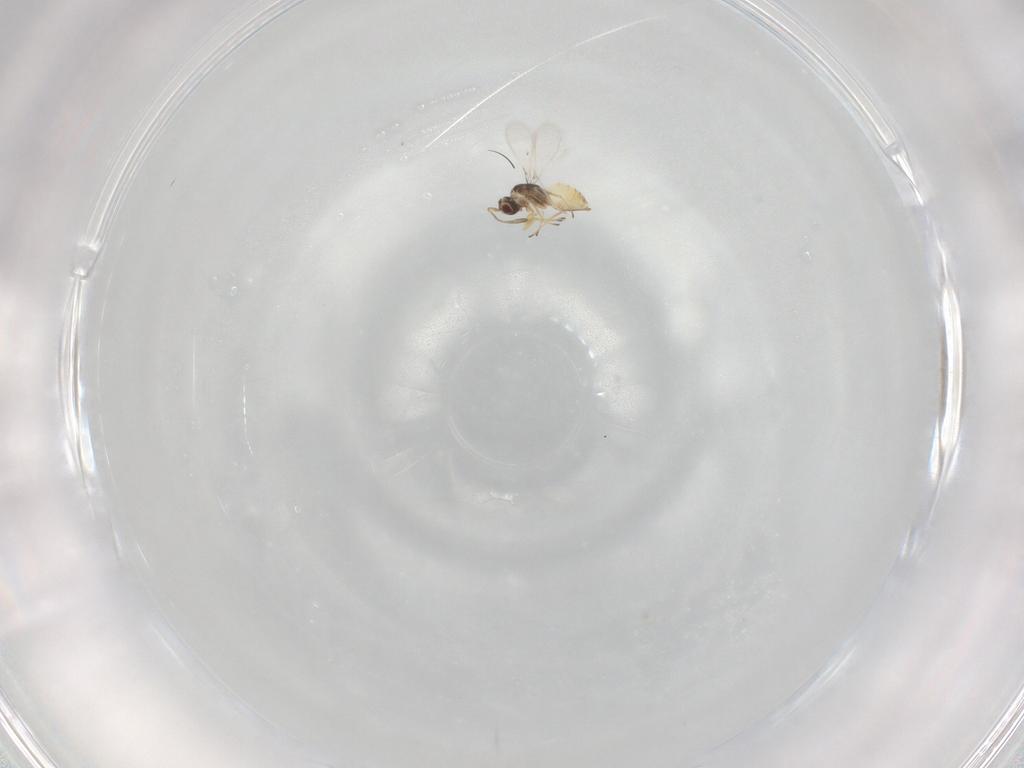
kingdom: Animalia
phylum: Arthropoda
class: Insecta
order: Hymenoptera
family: Mymaridae
